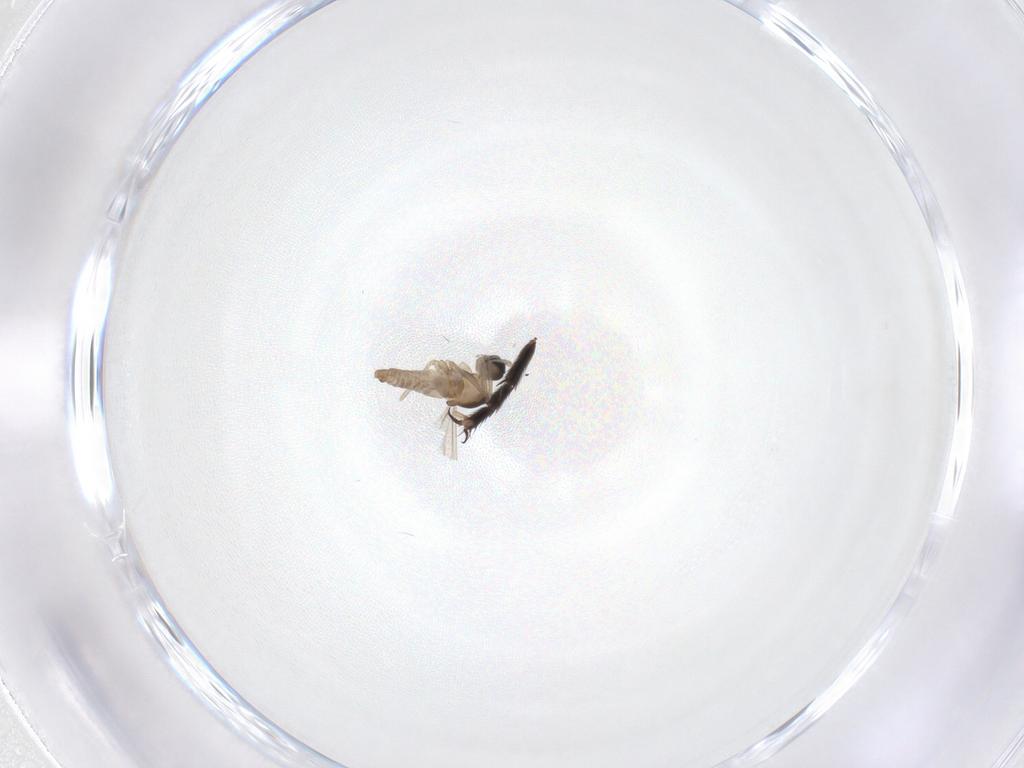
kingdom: Animalia
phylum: Arthropoda
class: Insecta
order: Diptera
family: Cecidomyiidae
